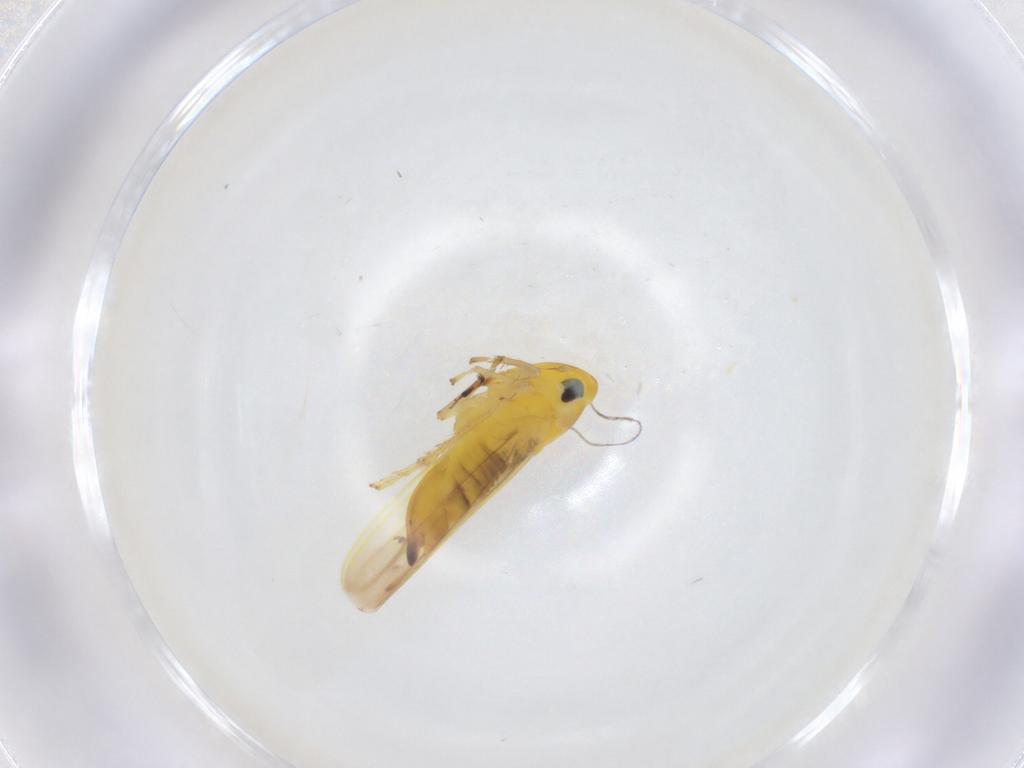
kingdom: Animalia
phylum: Arthropoda
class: Insecta
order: Hemiptera
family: Cicadellidae
